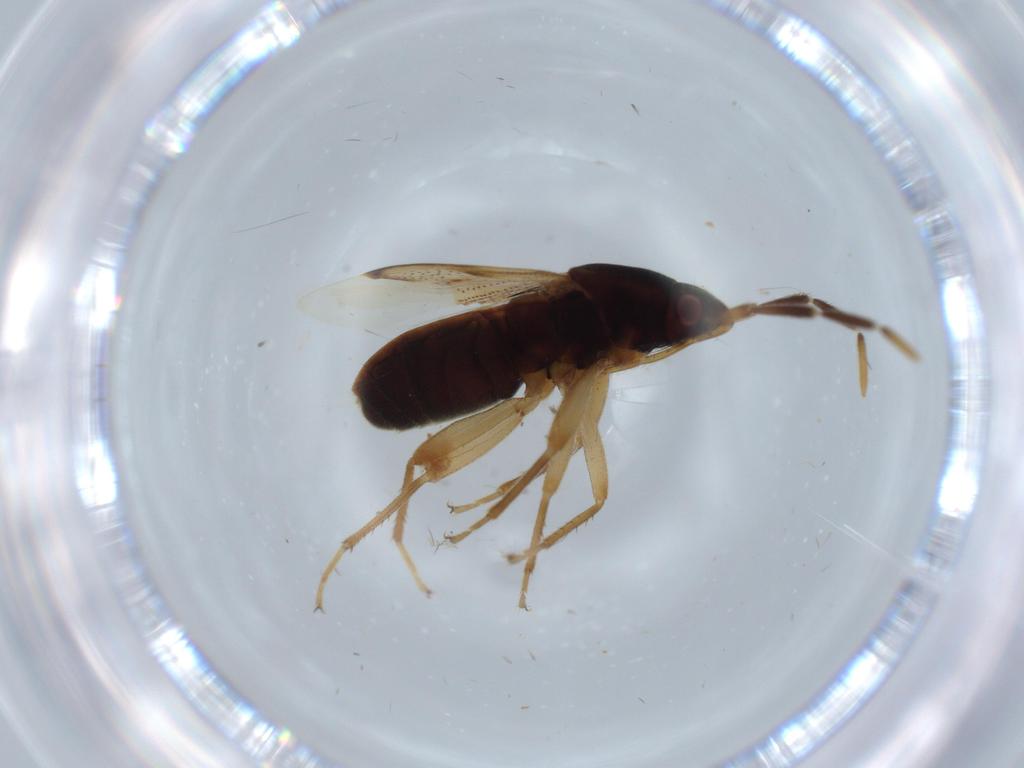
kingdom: Animalia
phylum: Arthropoda
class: Insecta
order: Hemiptera
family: Rhyparochromidae
